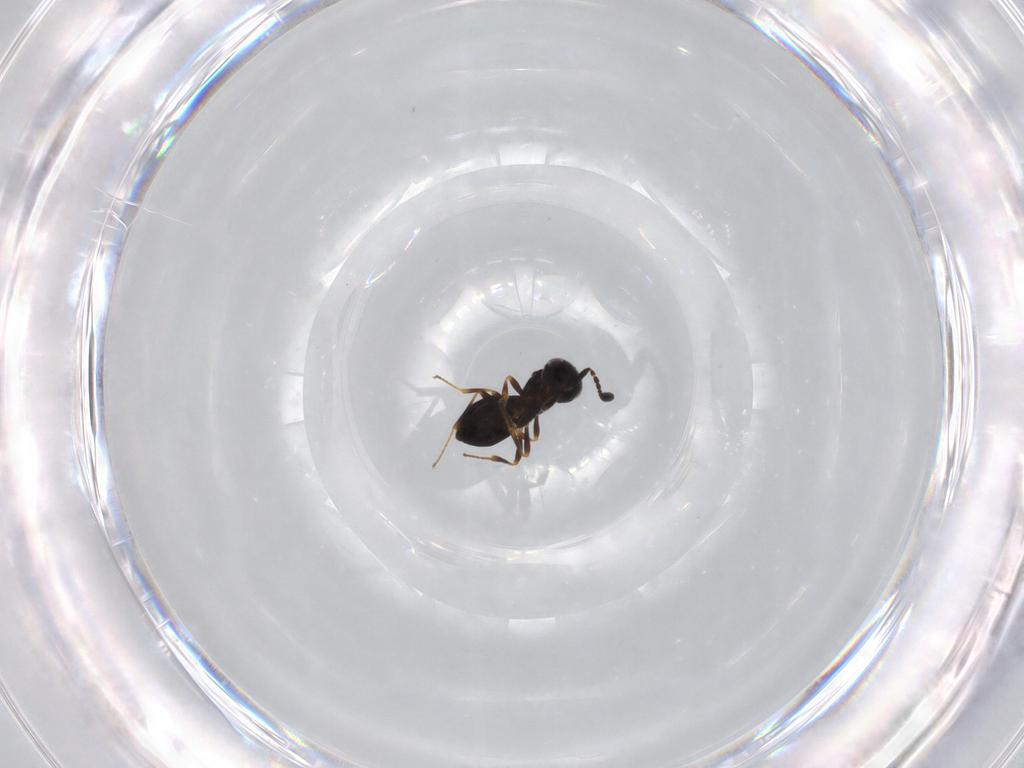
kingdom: Animalia
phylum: Arthropoda
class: Insecta
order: Hymenoptera
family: Scelionidae
